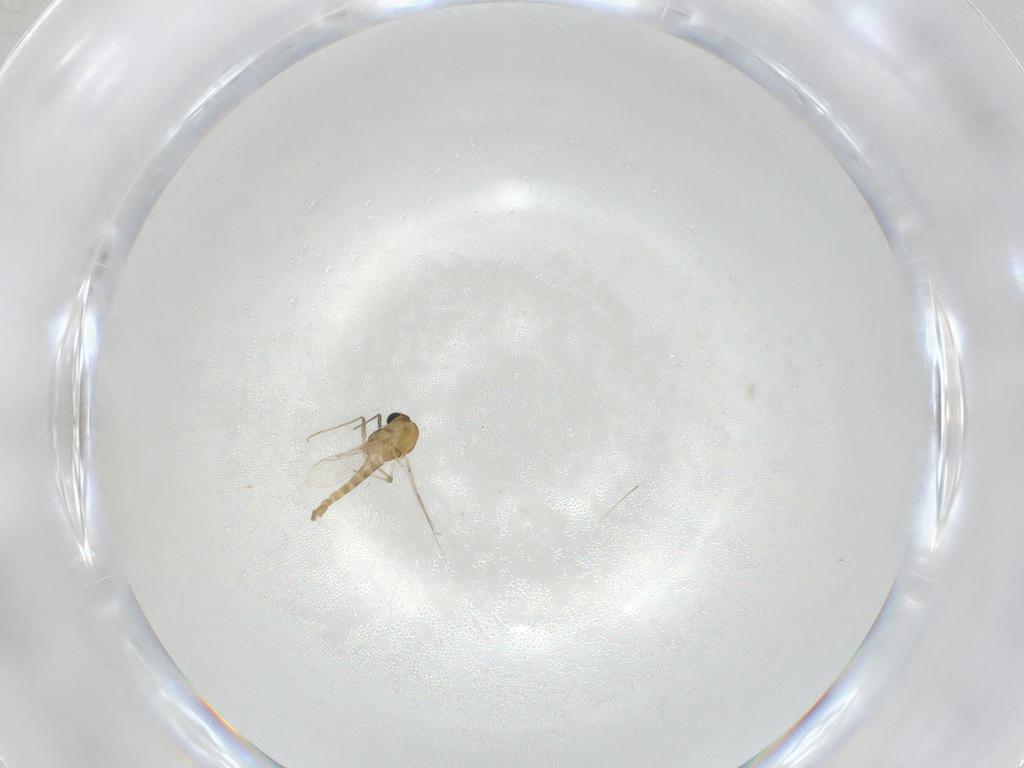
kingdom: Animalia
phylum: Arthropoda
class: Insecta
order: Diptera
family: Chironomidae
